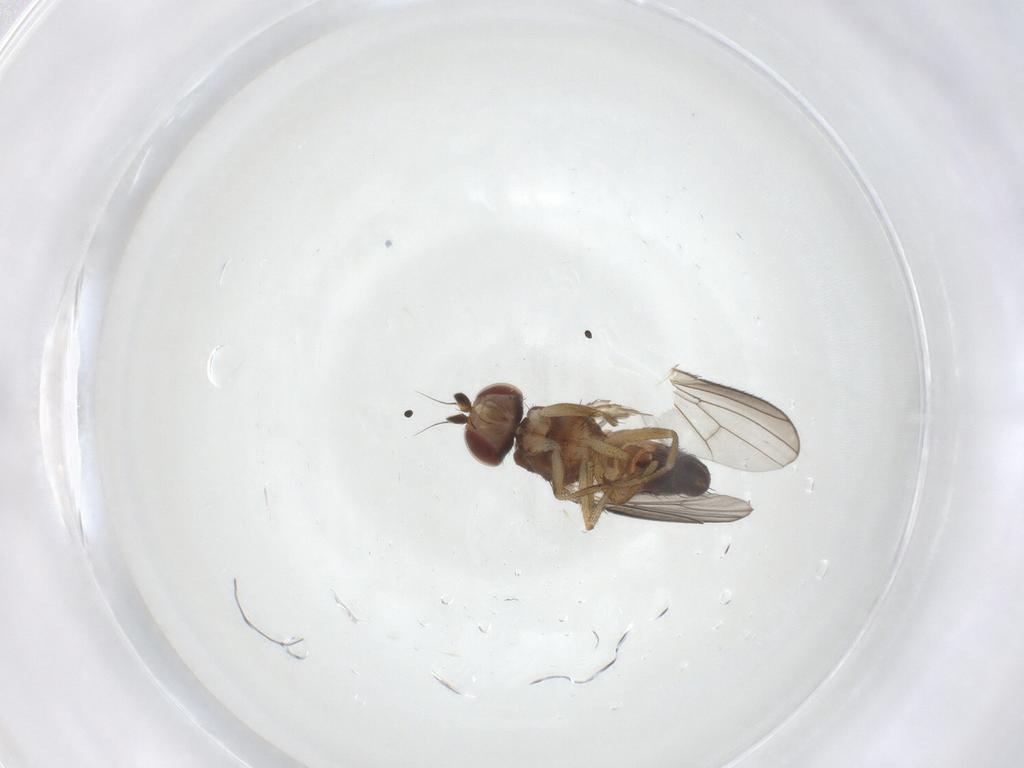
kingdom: Animalia
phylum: Arthropoda
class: Insecta
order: Diptera
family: Heleomyzidae
